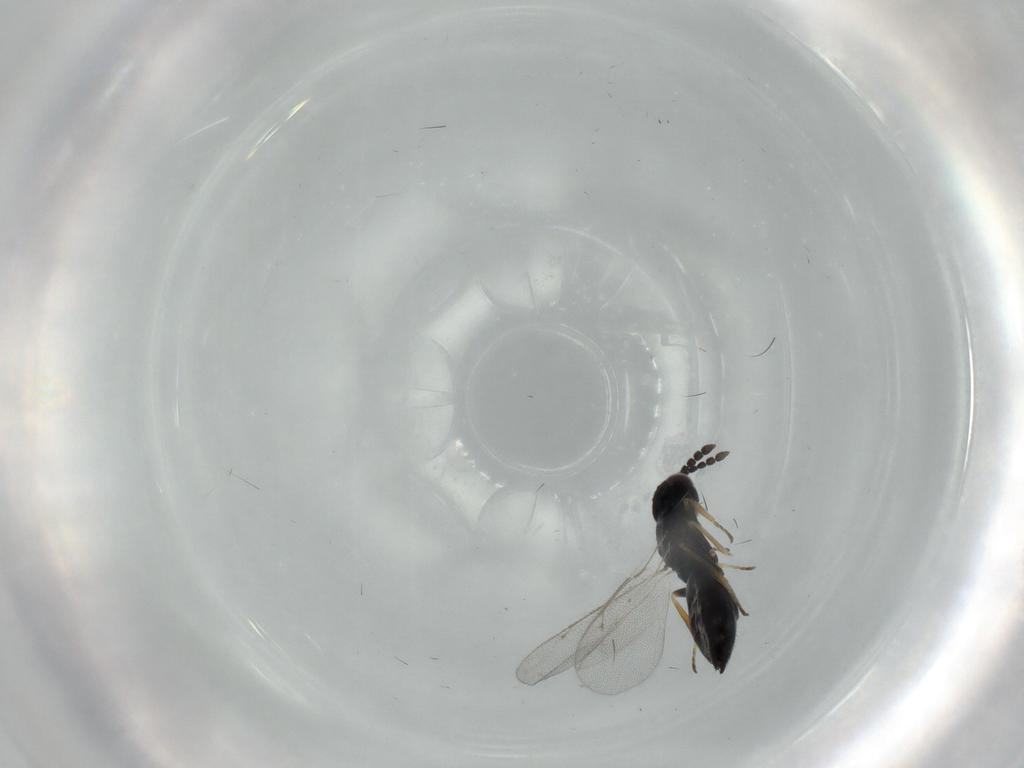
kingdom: Animalia
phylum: Arthropoda
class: Insecta
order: Hymenoptera
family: Eulophidae
